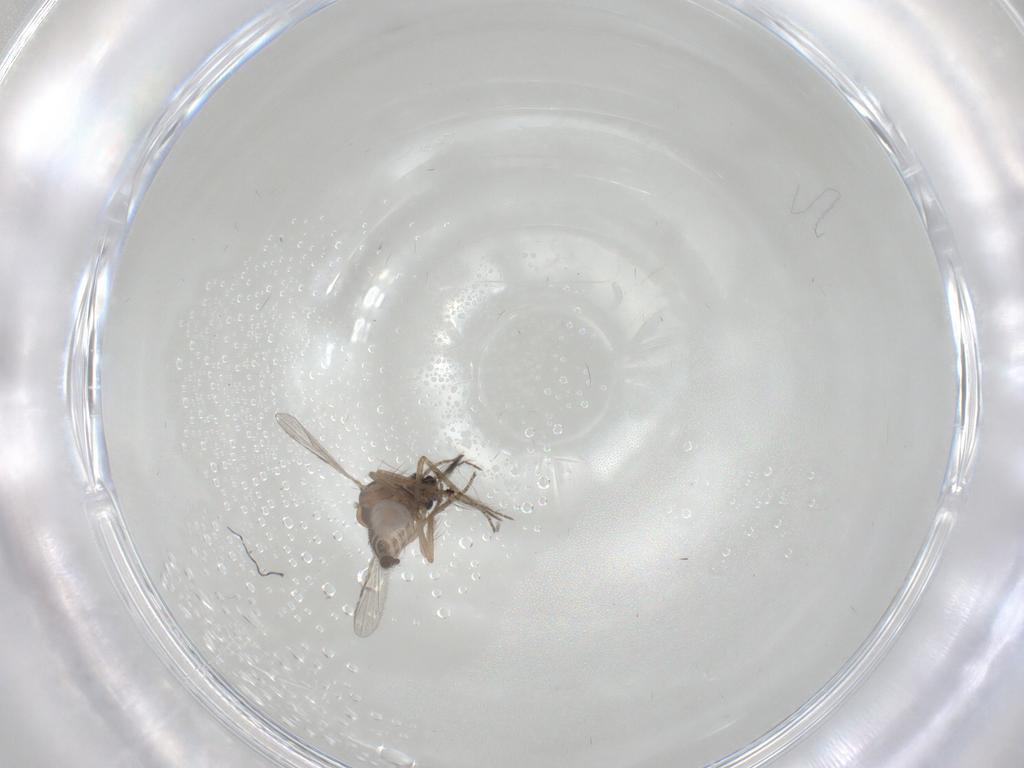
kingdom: Animalia
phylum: Arthropoda
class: Insecta
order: Diptera
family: Ceratopogonidae
